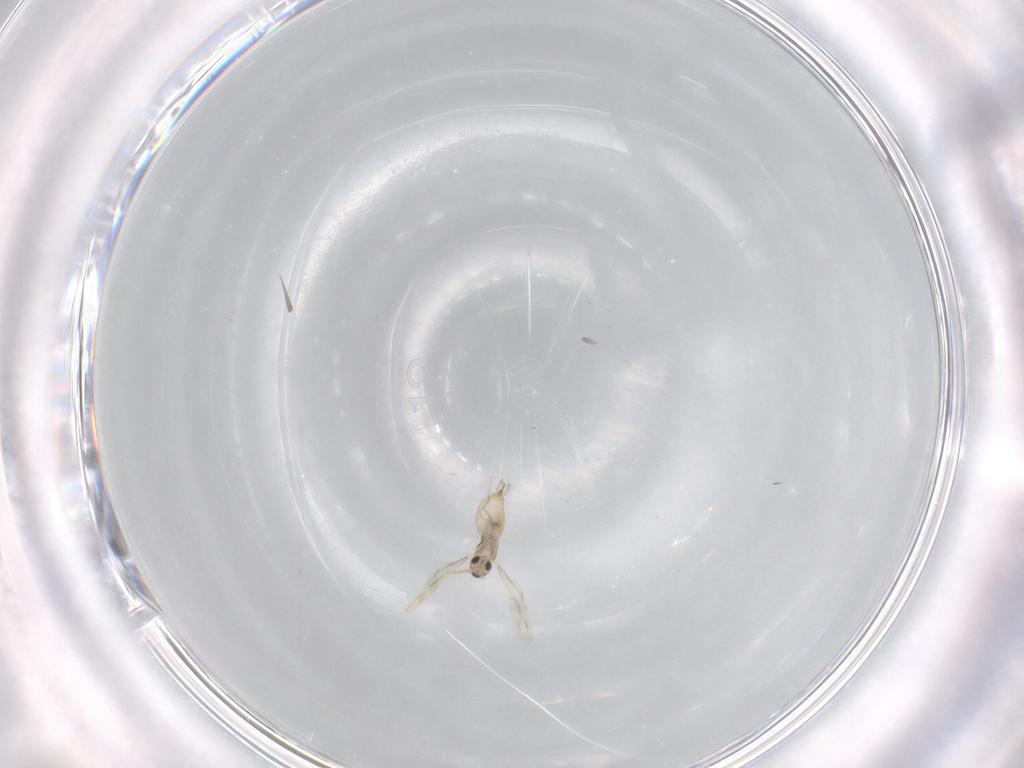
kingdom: Animalia
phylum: Arthropoda
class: Insecta
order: Diptera
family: Cecidomyiidae
